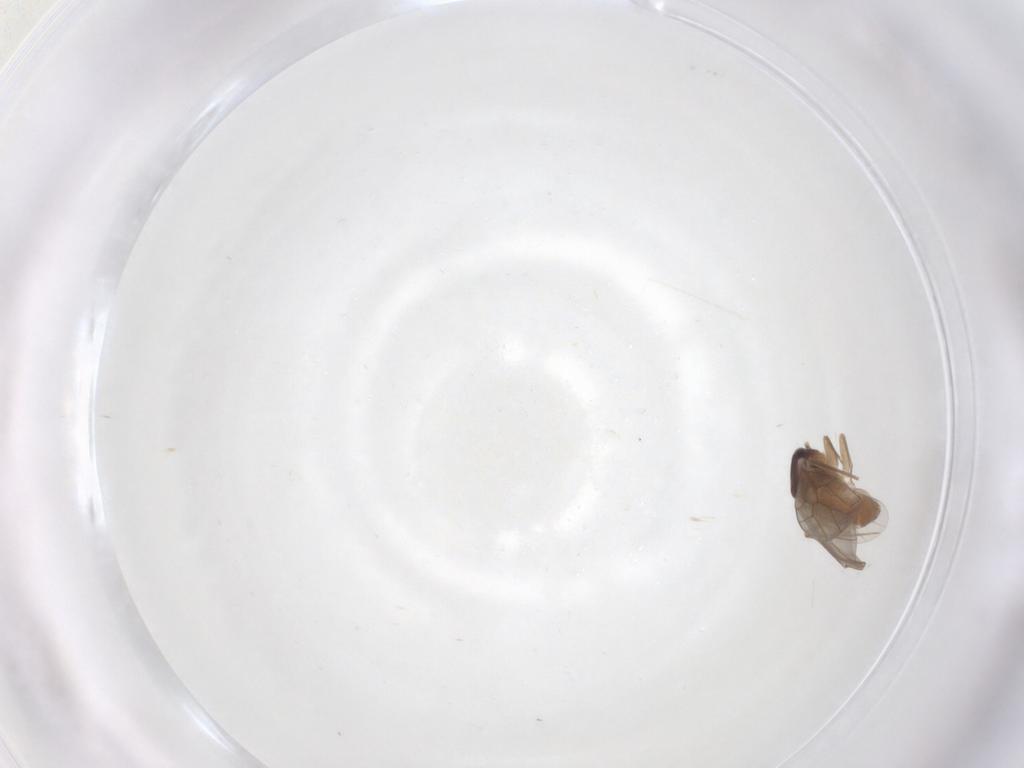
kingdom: Animalia
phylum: Arthropoda
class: Insecta
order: Psocodea
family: Lepidopsocidae
